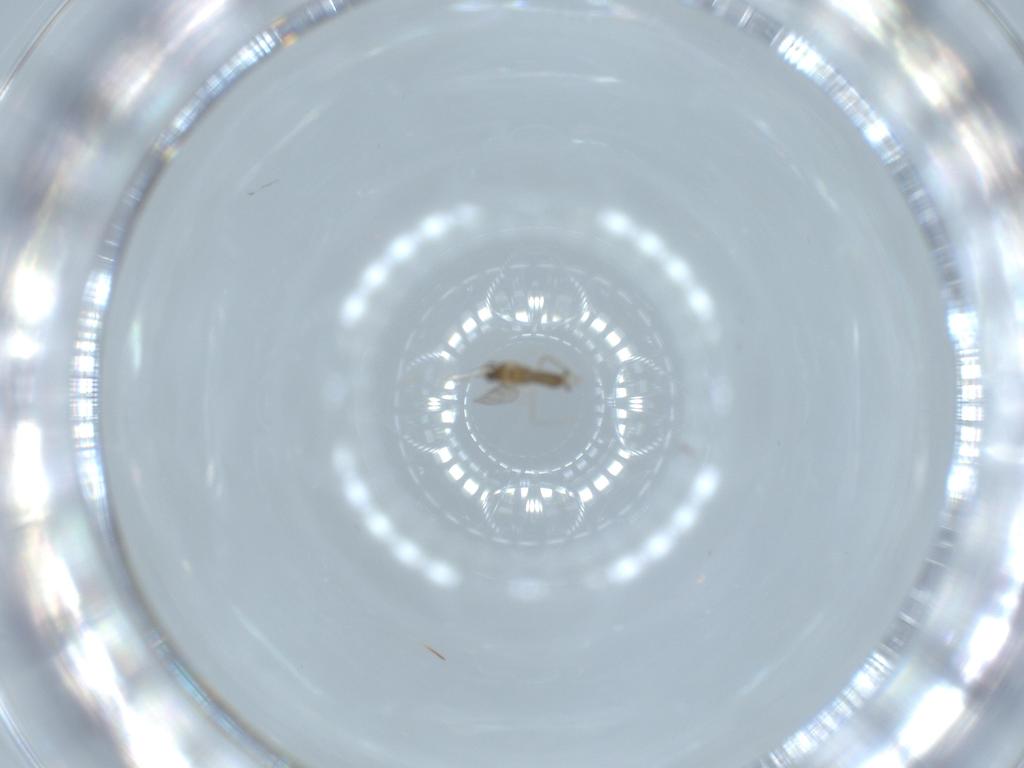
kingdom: Animalia
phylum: Arthropoda
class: Insecta
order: Diptera
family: Cecidomyiidae
